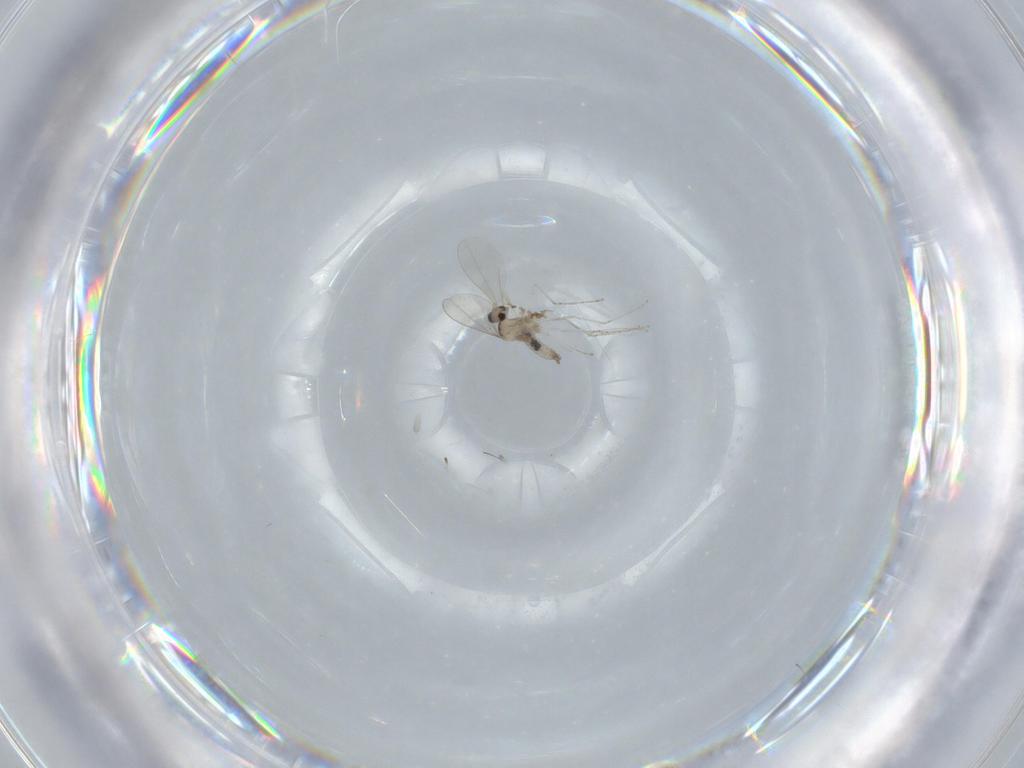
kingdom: Animalia
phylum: Arthropoda
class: Insecta
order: Diptera
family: Cecidomyiidae
